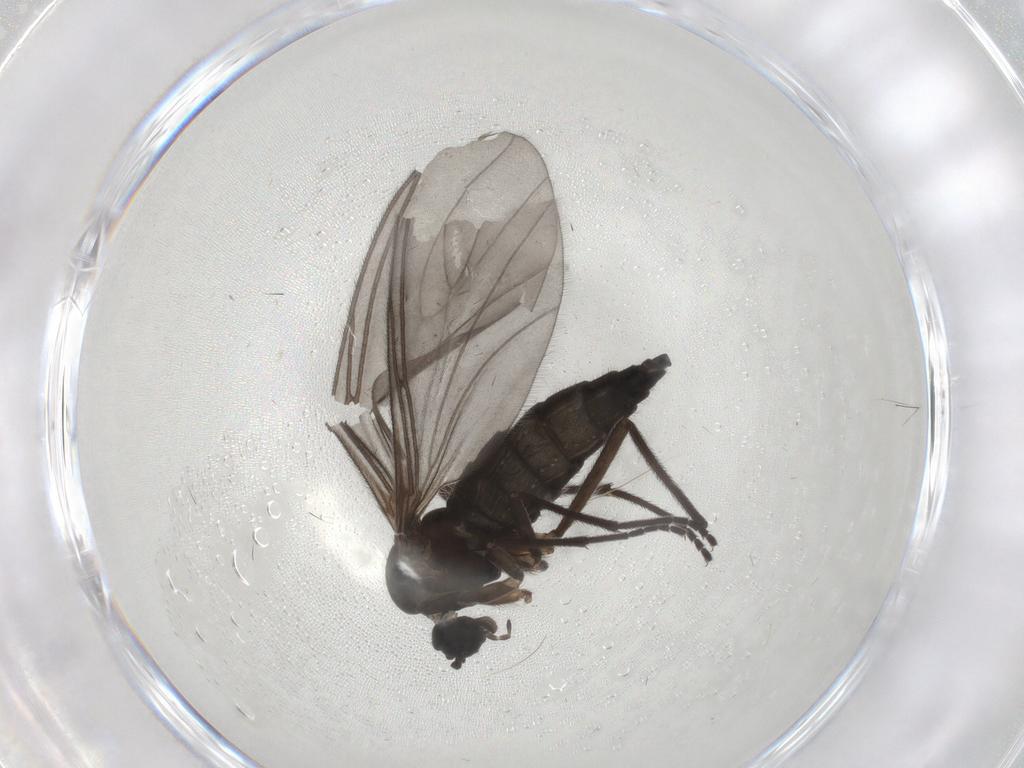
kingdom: Animalia
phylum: Arthropoda
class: Insecta
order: Diptera
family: Sciaridae
